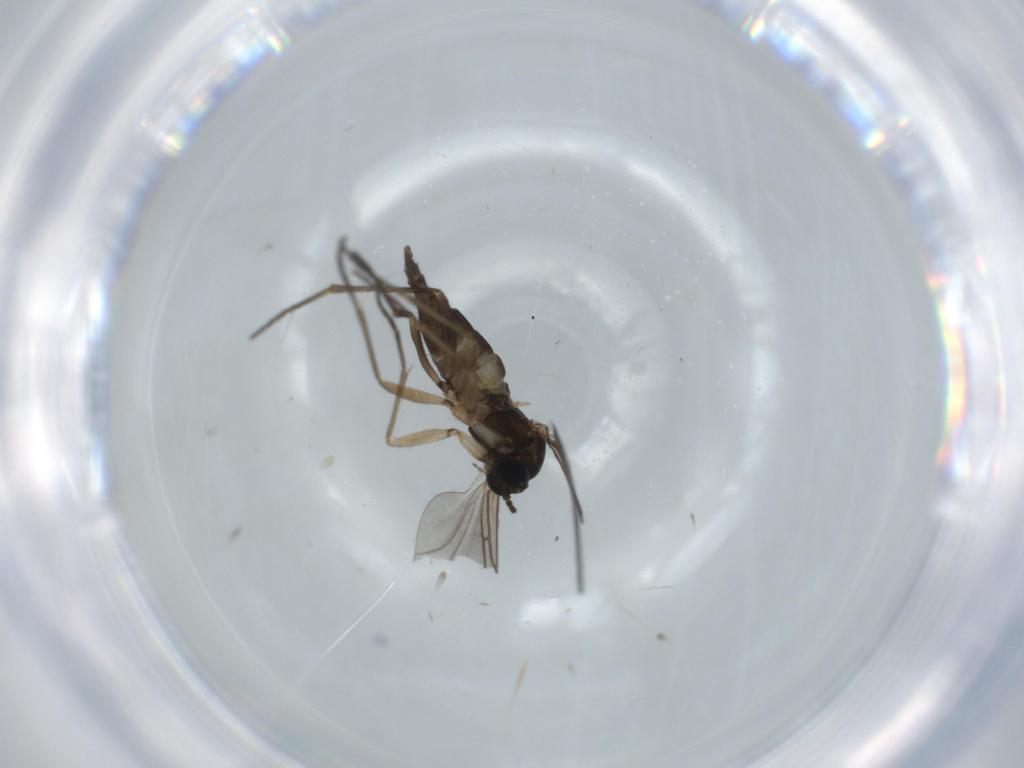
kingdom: Animalia
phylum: Arthropoda
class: Insecta
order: Diptera
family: Sciaridae
